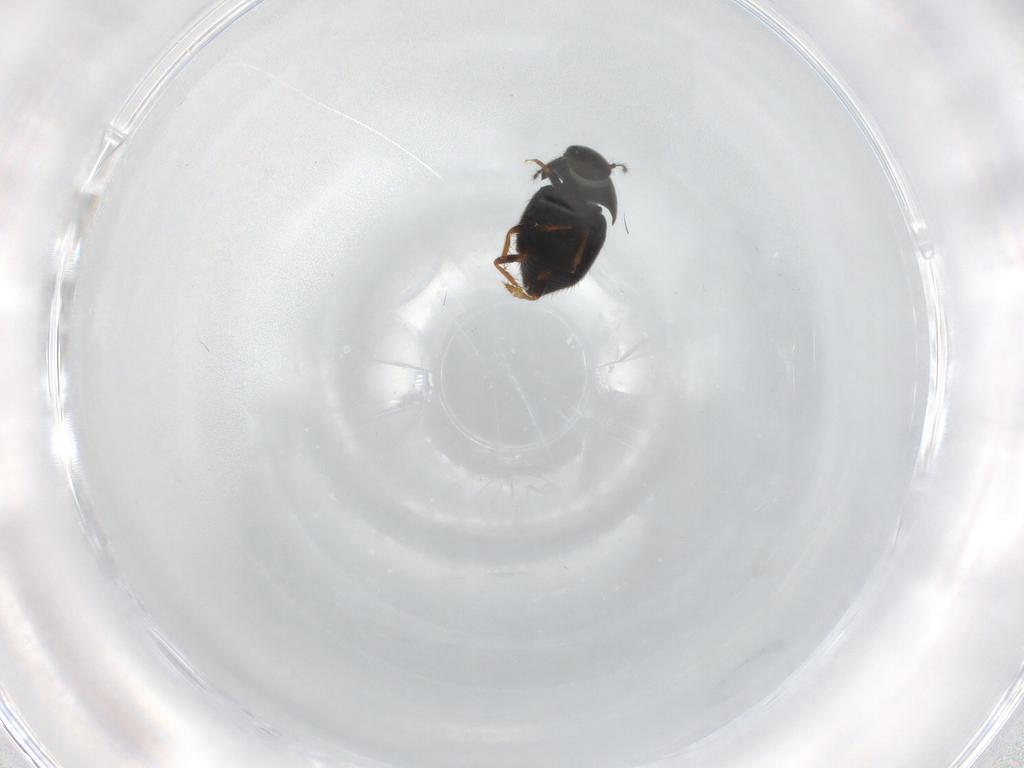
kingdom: Animalia
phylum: Arthropoda
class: Insecta
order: Coleoptera
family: Ptiliidae
